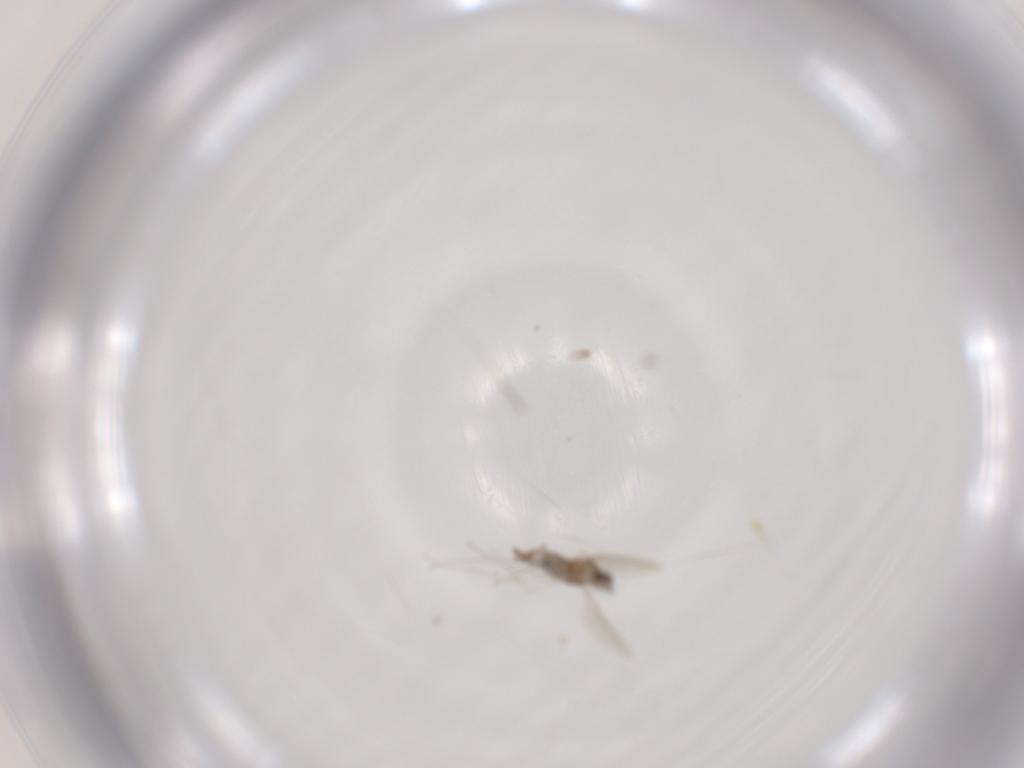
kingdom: Animalia
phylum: Arthropoda
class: Insecta
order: Diptera
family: Cecidomyiidae
